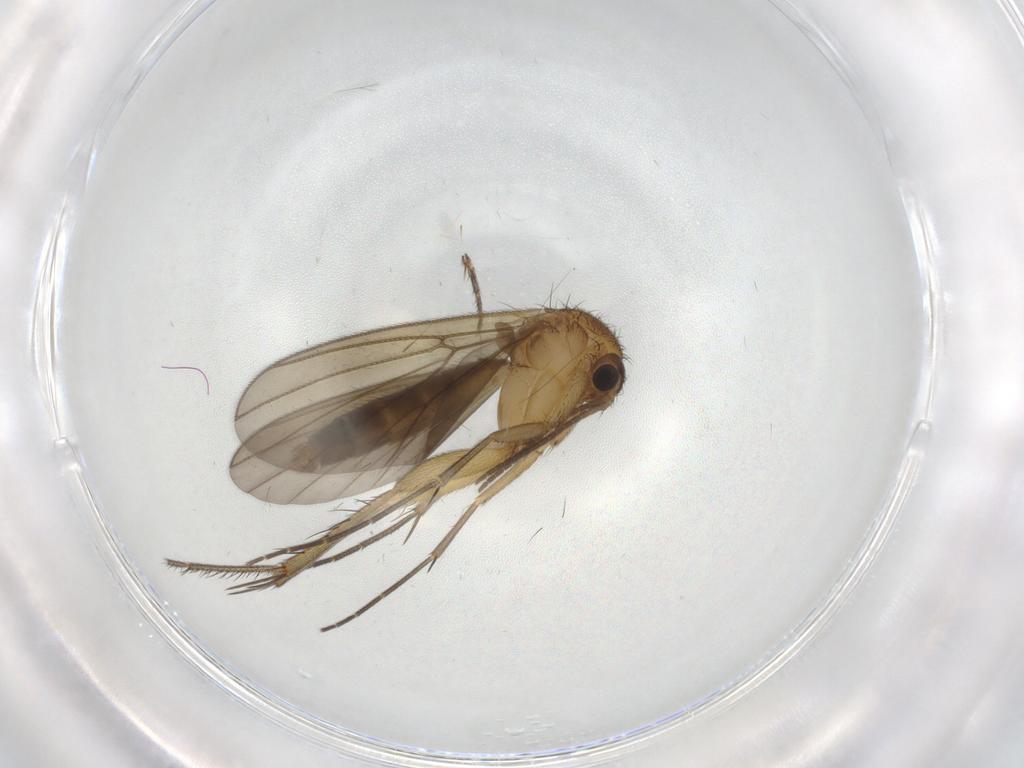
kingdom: Animalia
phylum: Arthropoda
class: Insecta
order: Diptera
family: Mycetophilidae
